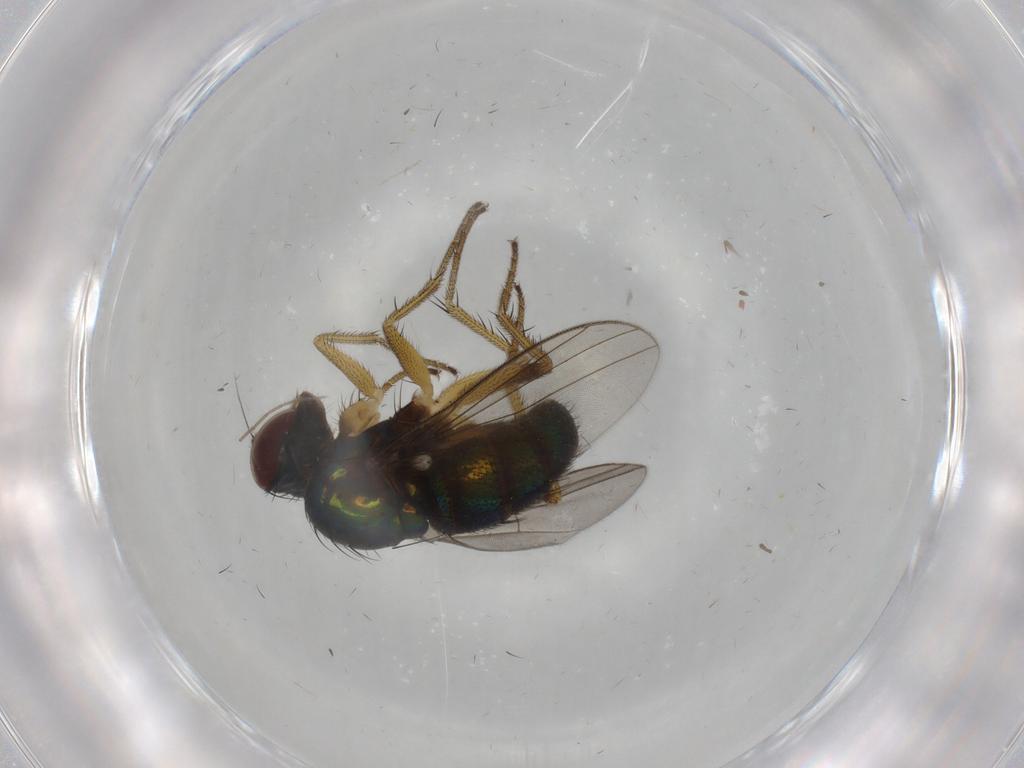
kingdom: Animalia
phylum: Arthropoda
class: Insecta
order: Diptera
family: Dolichopodidae
